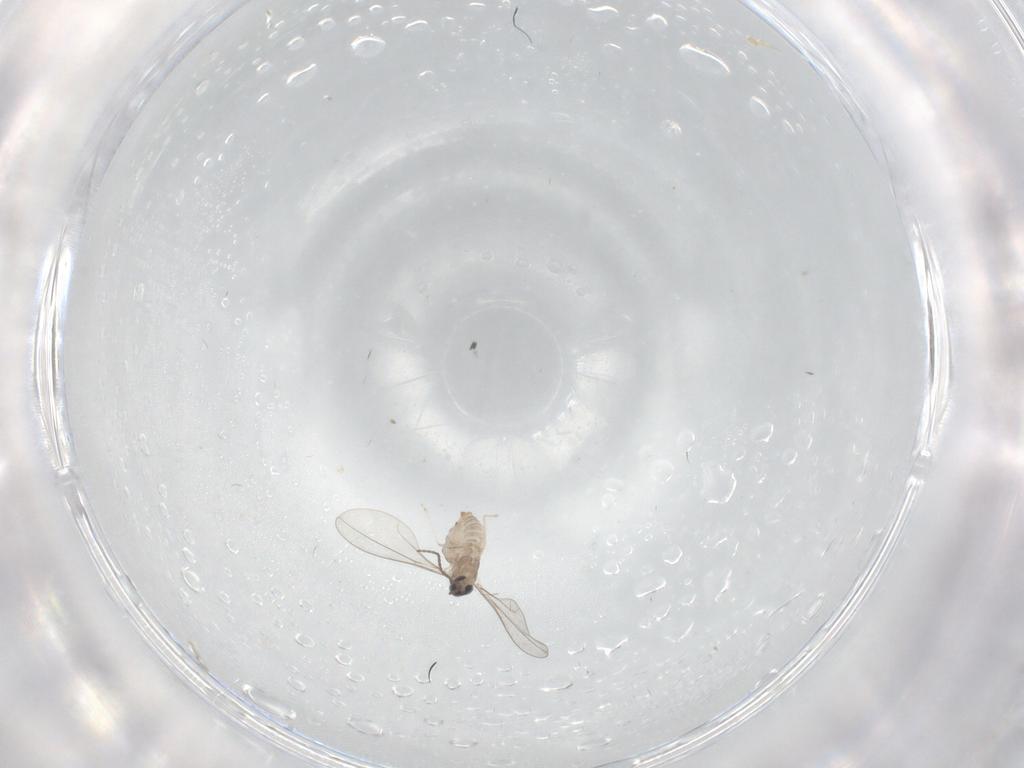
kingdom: Animalia
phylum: Arthropoda
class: Insecta
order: Diptera
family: Cecidomyiidae
